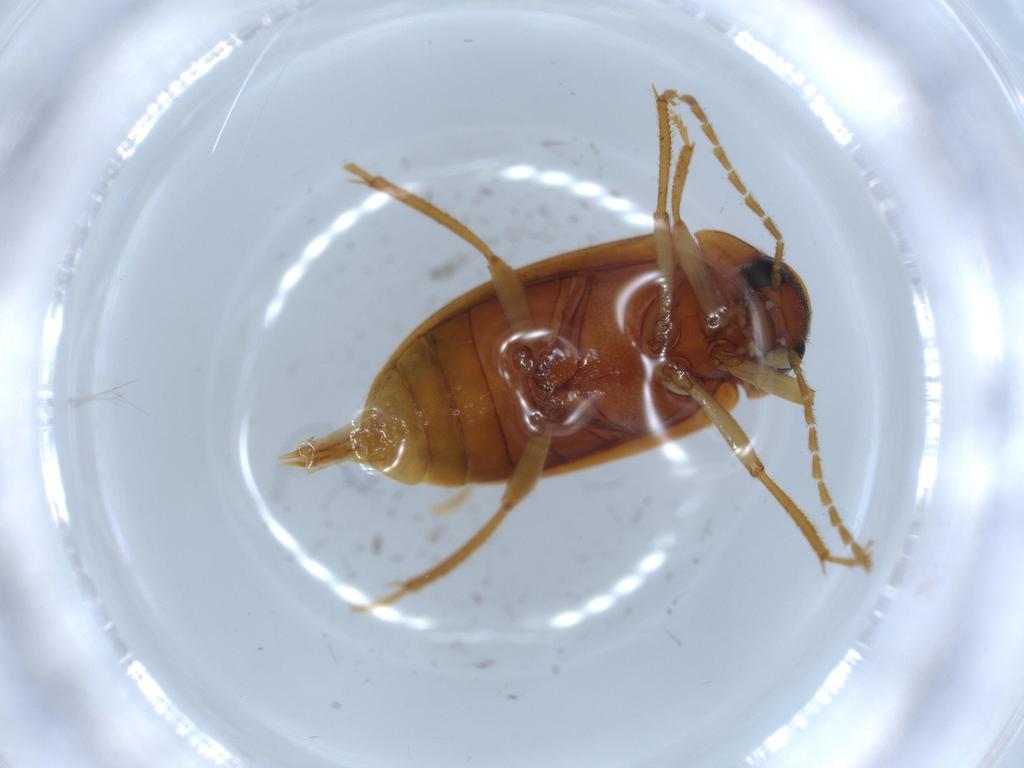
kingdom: Animalia
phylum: Arthropoda
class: Insecta
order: Coleoptera
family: Ptilodactylidae
